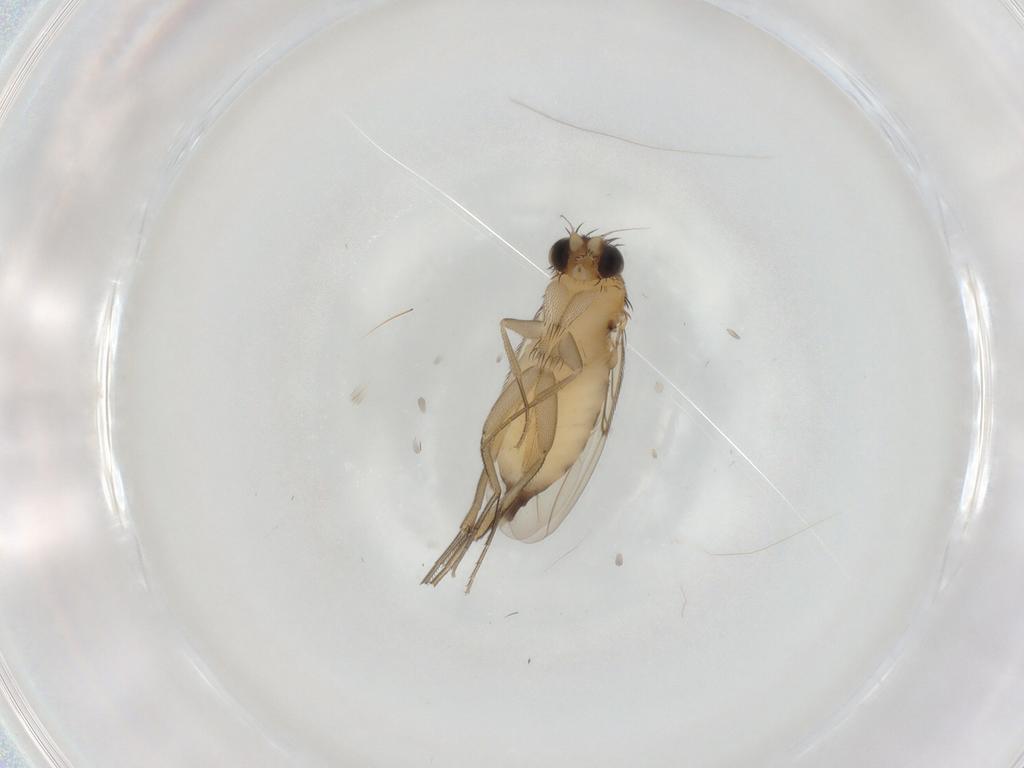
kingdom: Animalia
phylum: Arthropoda
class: Insecta
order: Diptera
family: Phoridae
